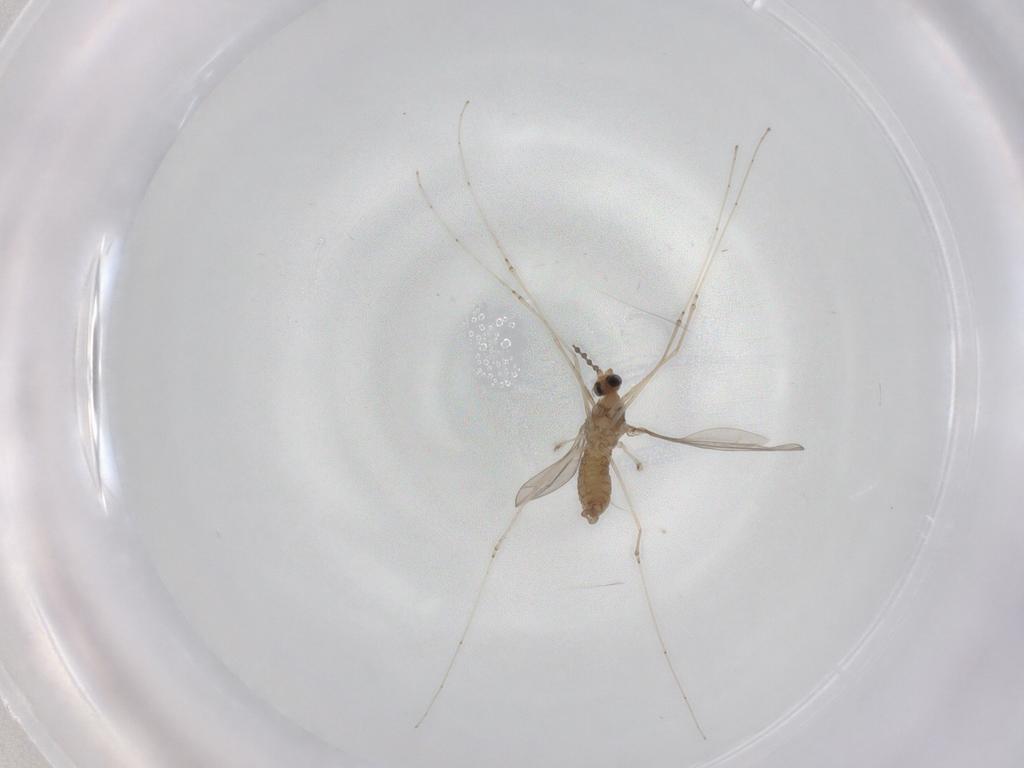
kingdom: Animalia
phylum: Arthropoda
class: Insecta
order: Diptera
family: Cecidomyiidae
